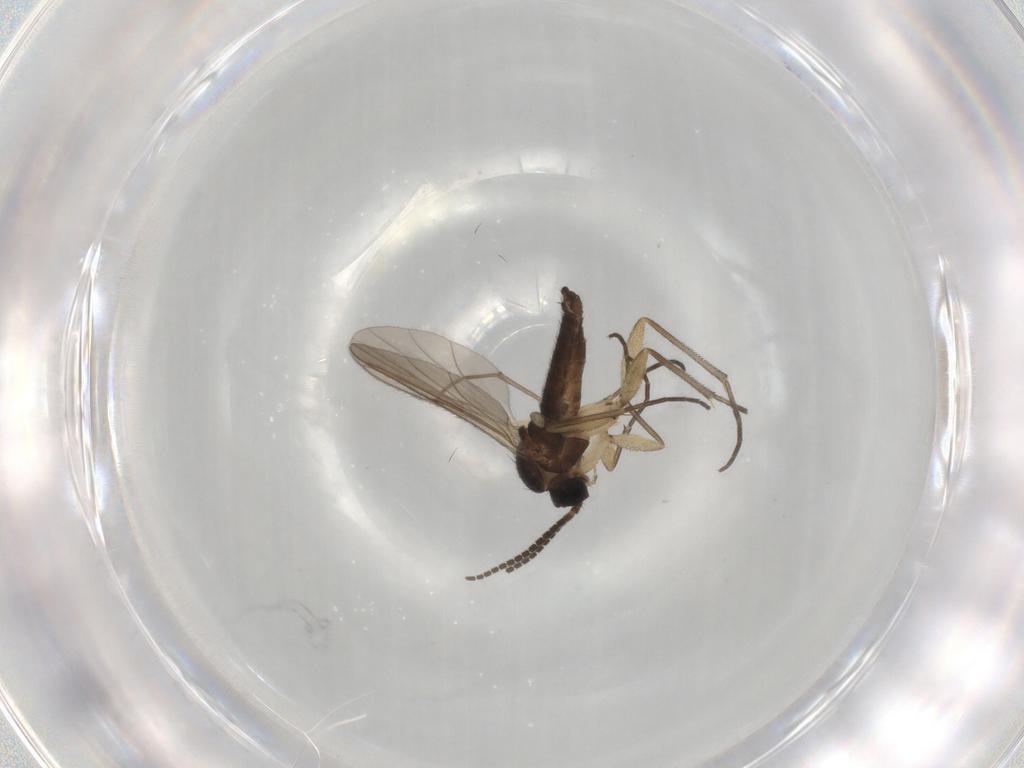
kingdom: Animalia
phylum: Arthropoda
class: Insecta
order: Diptera
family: Sciaridae
